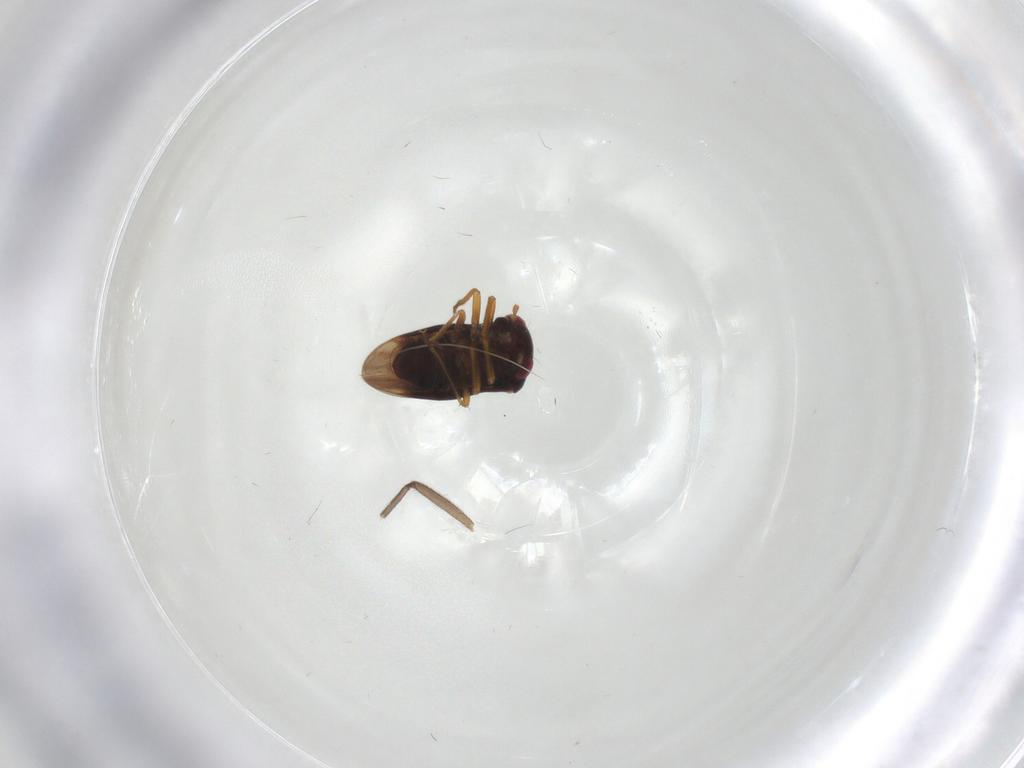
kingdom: Animalia
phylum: Arthropoda
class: Insecta
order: Hemiptera
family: Schizopteridae
